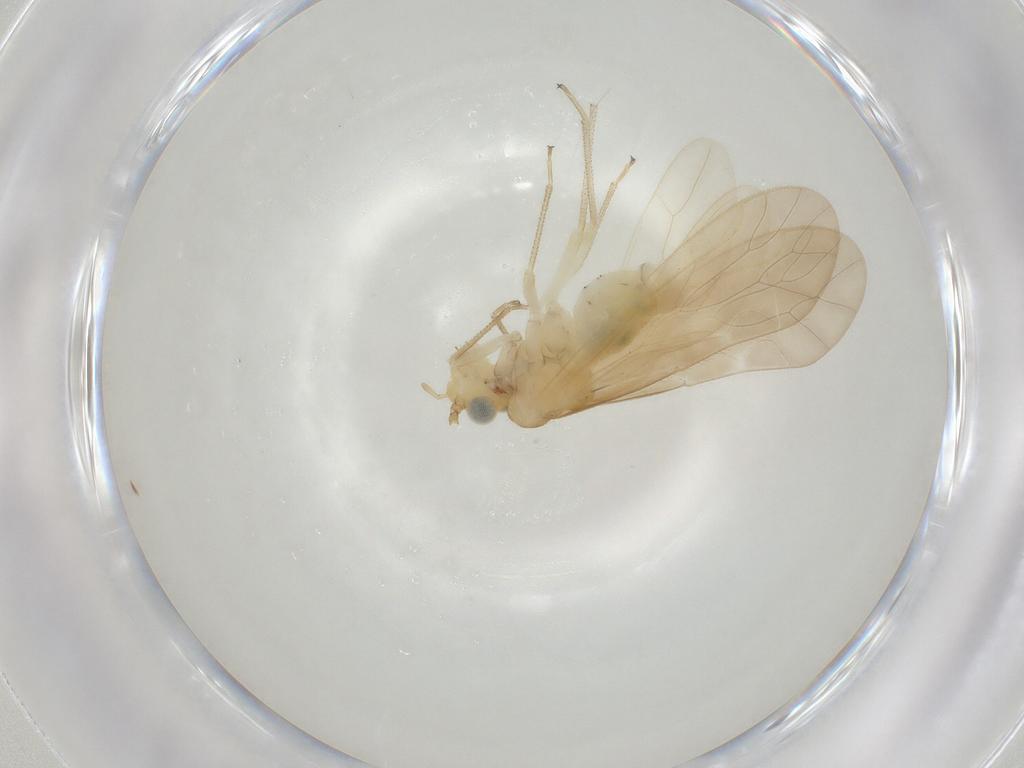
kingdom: Animalia
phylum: Arthropoda
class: Insecta
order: Psocodea
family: Caeciliusidae
